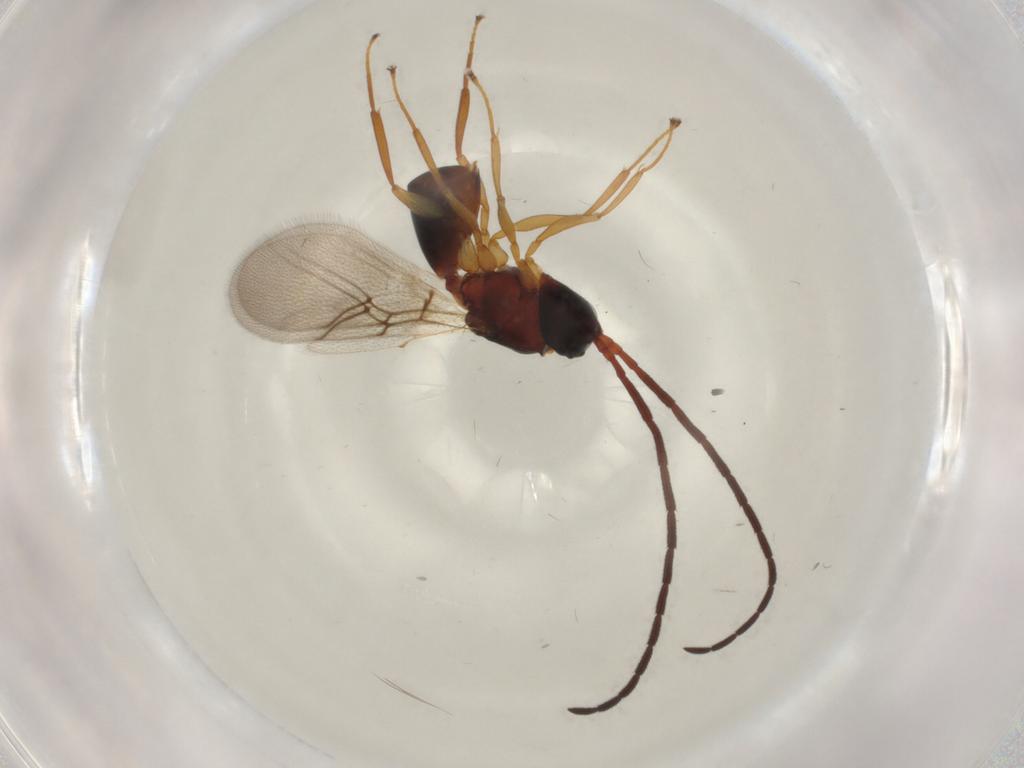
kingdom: Animalia
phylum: Arthropoda
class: Insecta
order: Hymenoptera
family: Figitidae
